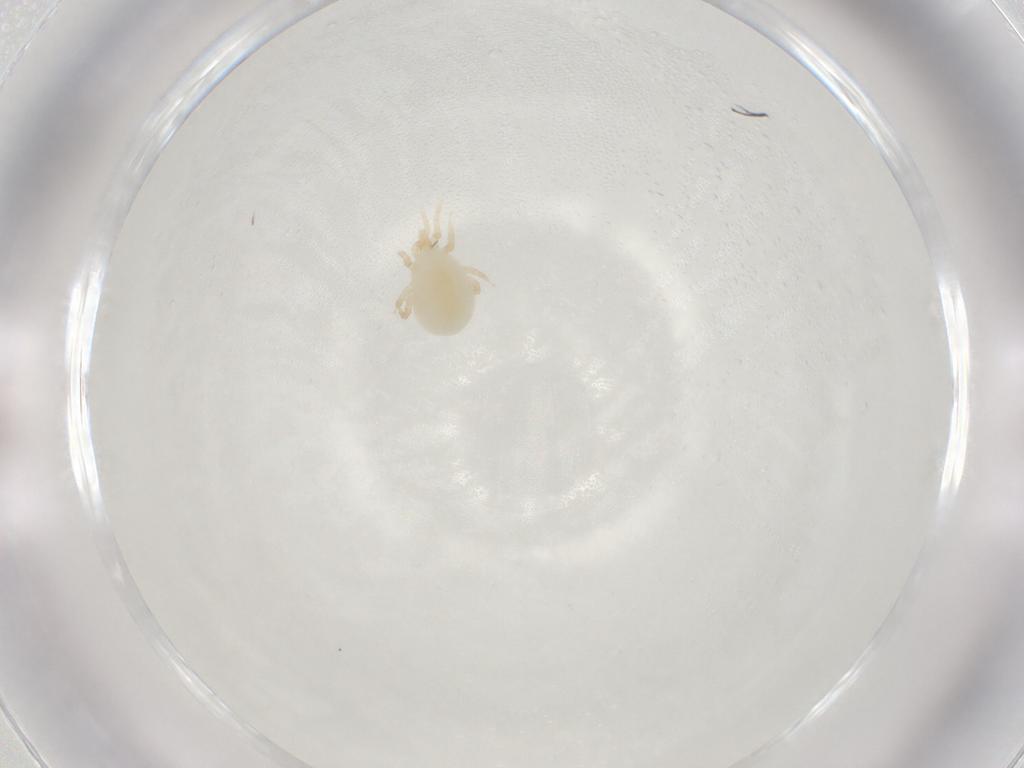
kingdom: Animalia
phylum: Arthropoda
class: Arachnida
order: Mesostigmata
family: Melicharidae
